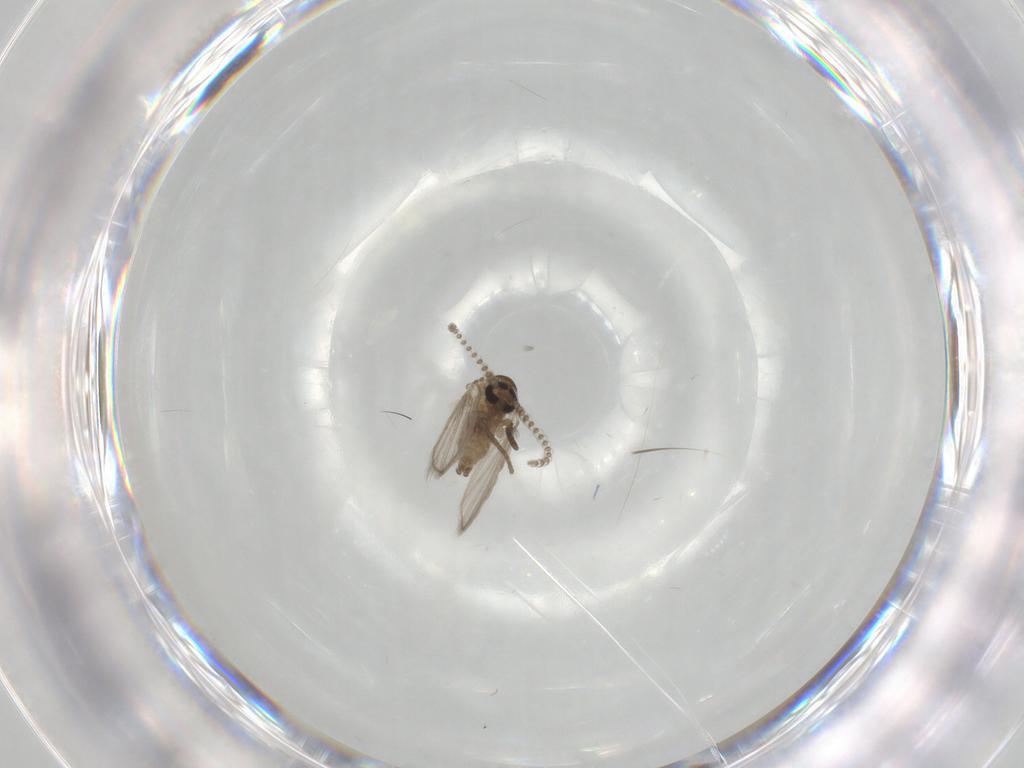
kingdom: Animalia
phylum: Arthropoda
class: Insecta
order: Diptera
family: Psychodidae
